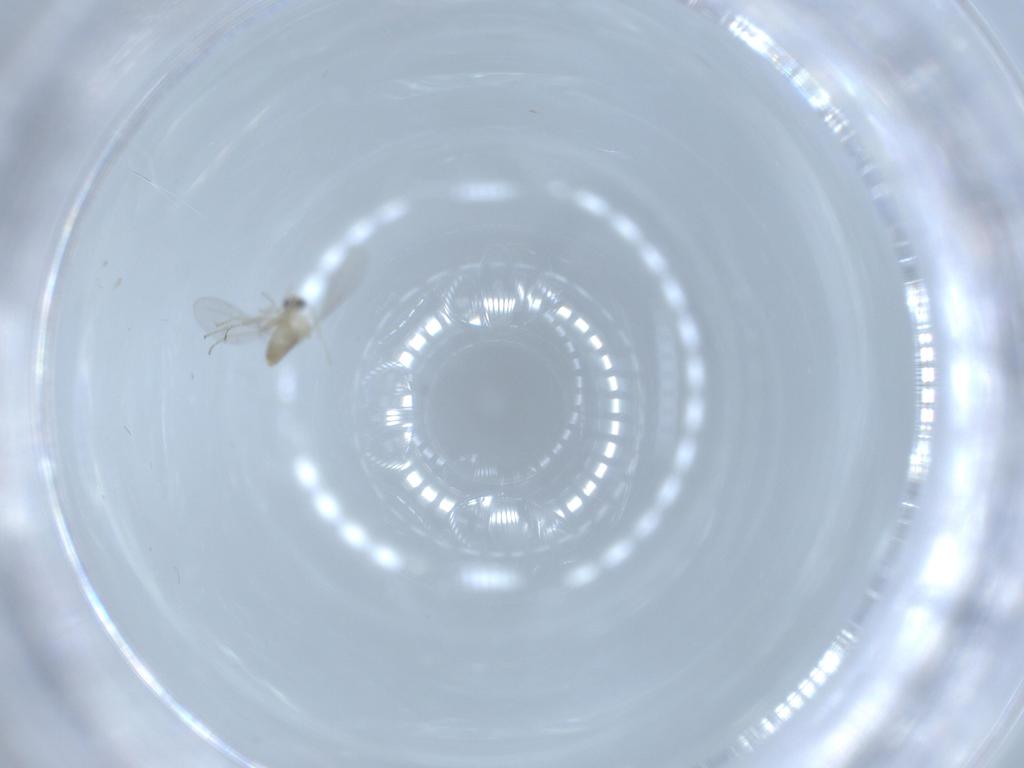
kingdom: Animalia
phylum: Arthropoda
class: Insecta
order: Diptera
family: Cecidomyiidae
